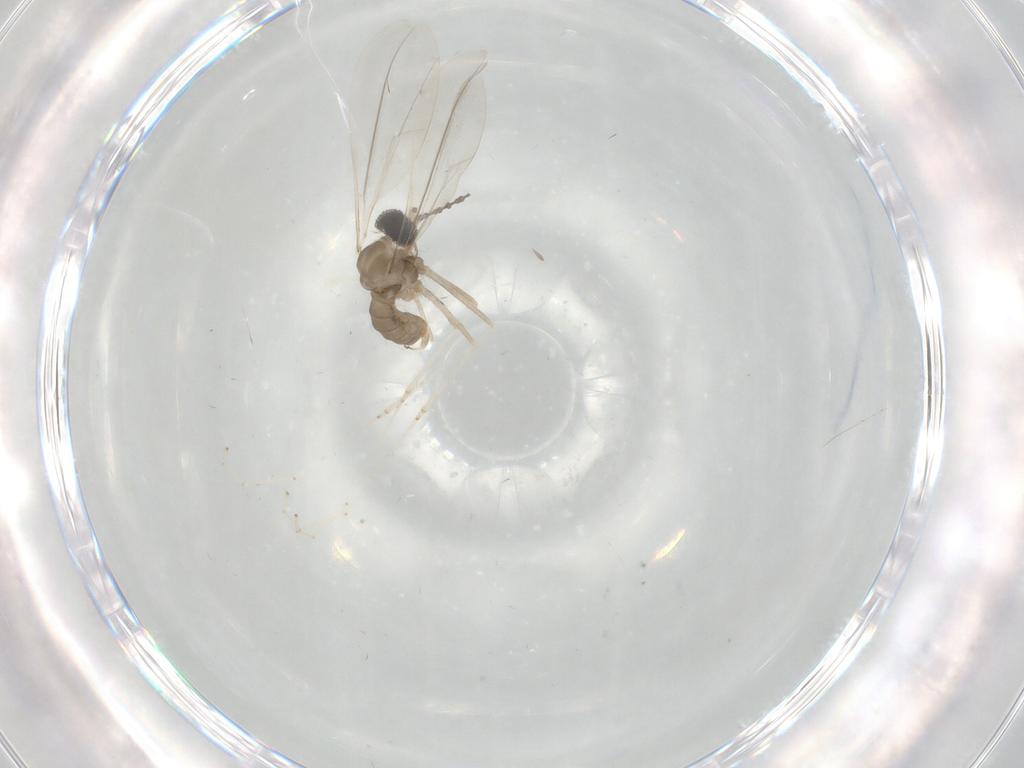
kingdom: Animalia
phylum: Arthropoda
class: Insecta
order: Diptera
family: Cecidomyiidae
